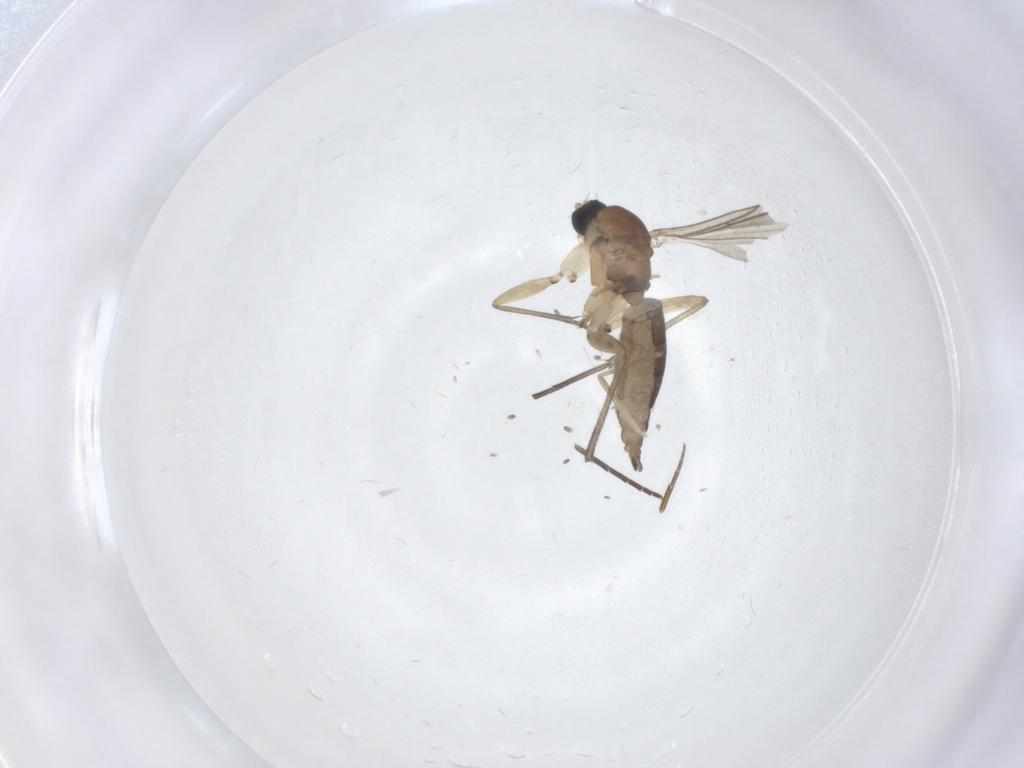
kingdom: Animalia
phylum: Arthropoda
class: Insecta
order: Diptera
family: Sciaridae
